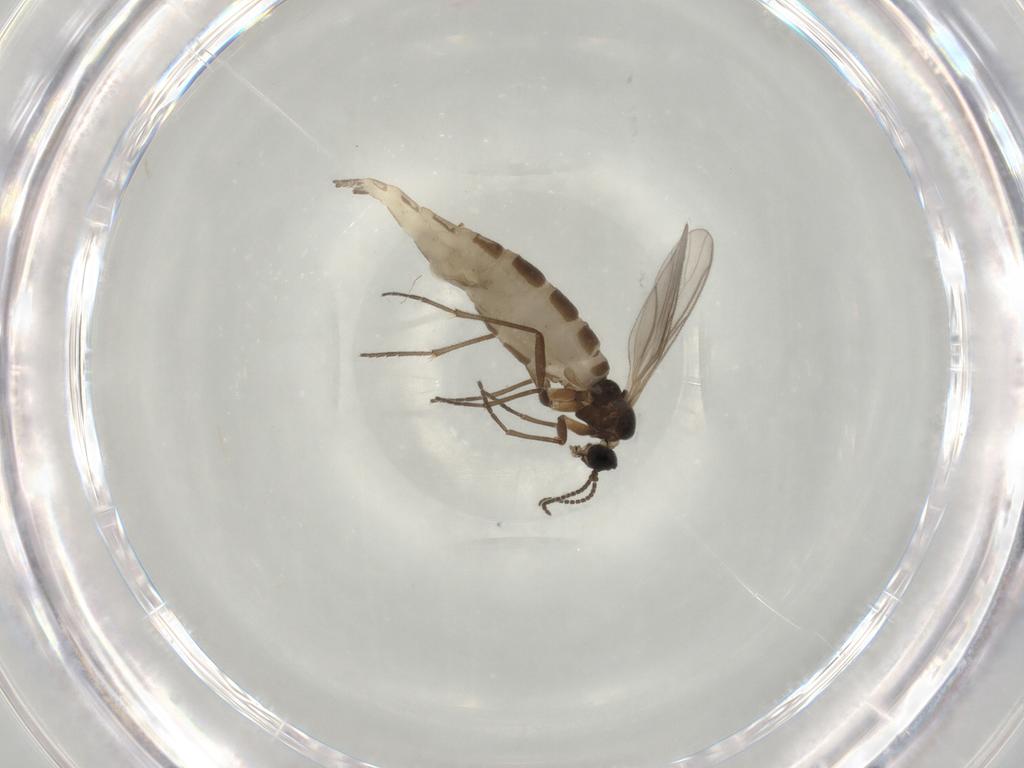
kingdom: Animalia
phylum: Arthropoda
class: Insecta
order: Diptera
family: Sciaridae
